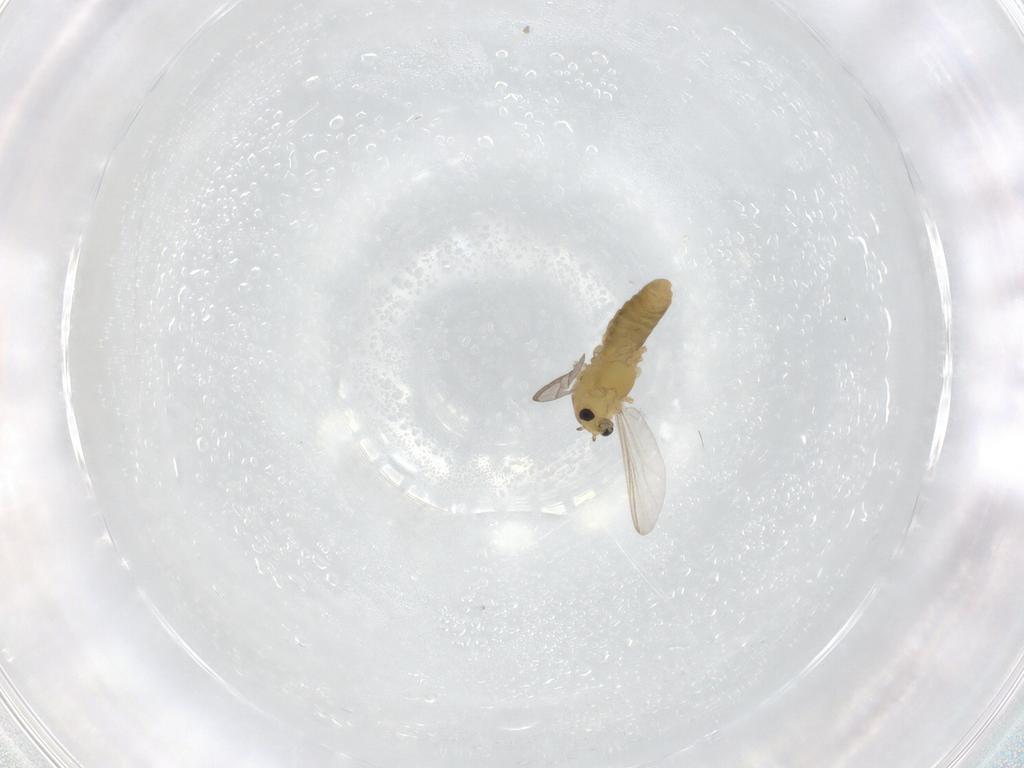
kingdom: Animalia
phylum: Arthropoda
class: Insecta
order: Diptera
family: Chironomidae
